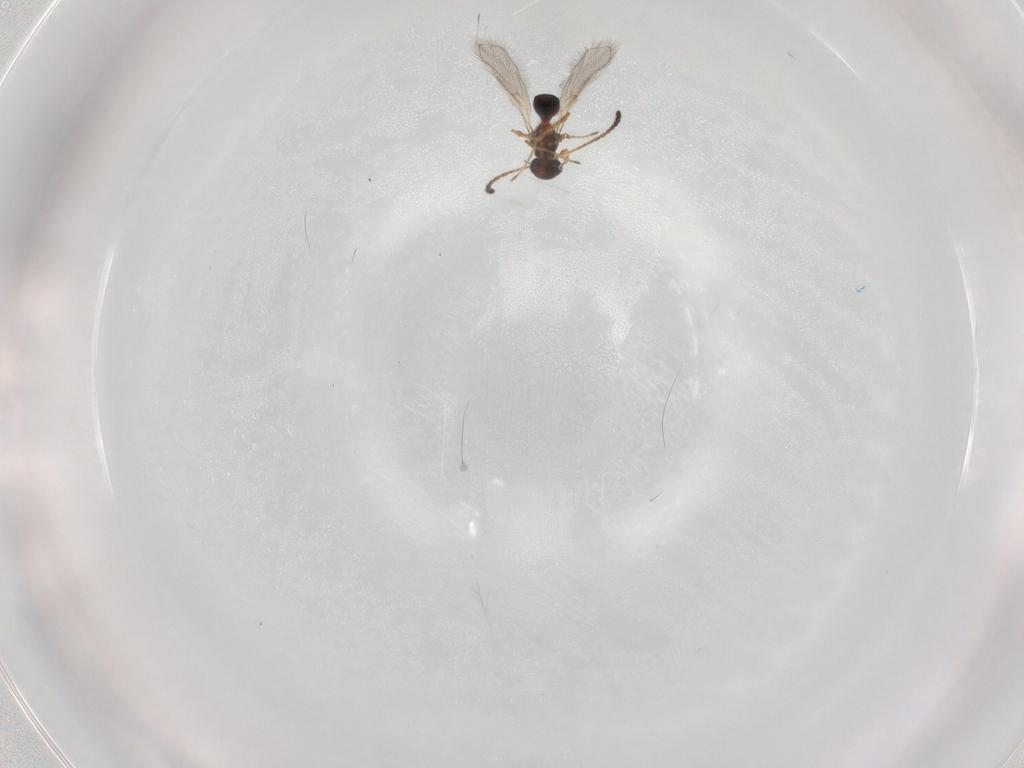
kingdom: Animalia
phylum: Arthropoda
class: Insecta
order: Hymenoptera
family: Diapriidae
